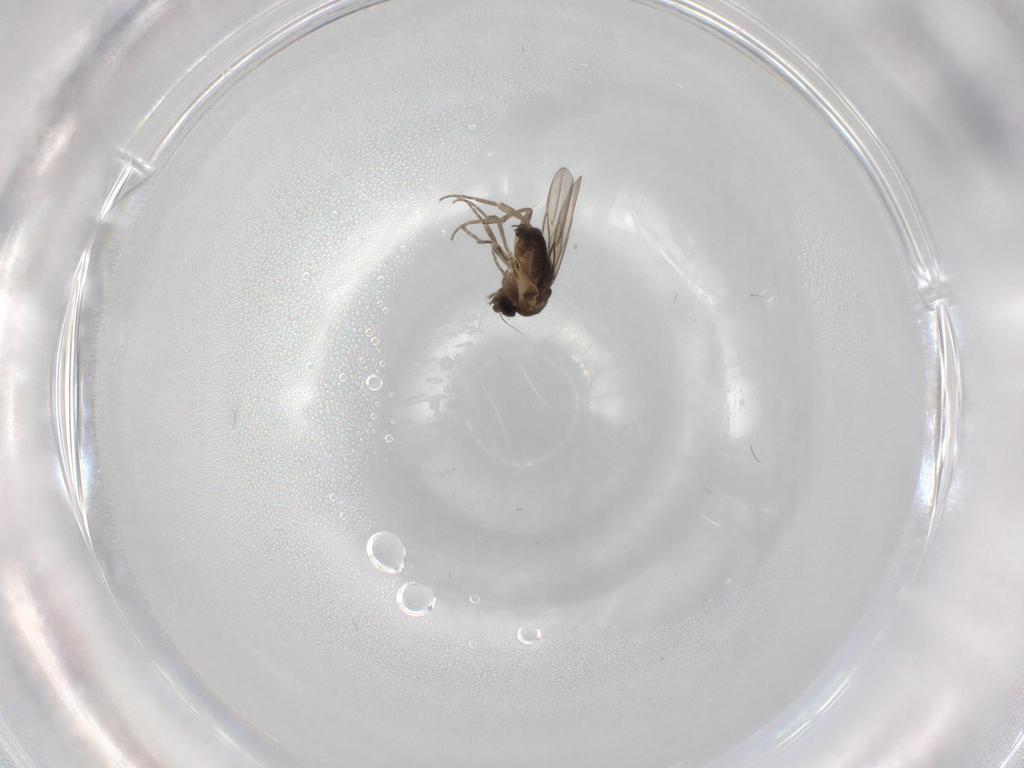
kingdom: Animalia
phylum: Arthropoda
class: Insecta
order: Diptera
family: Phoridae
